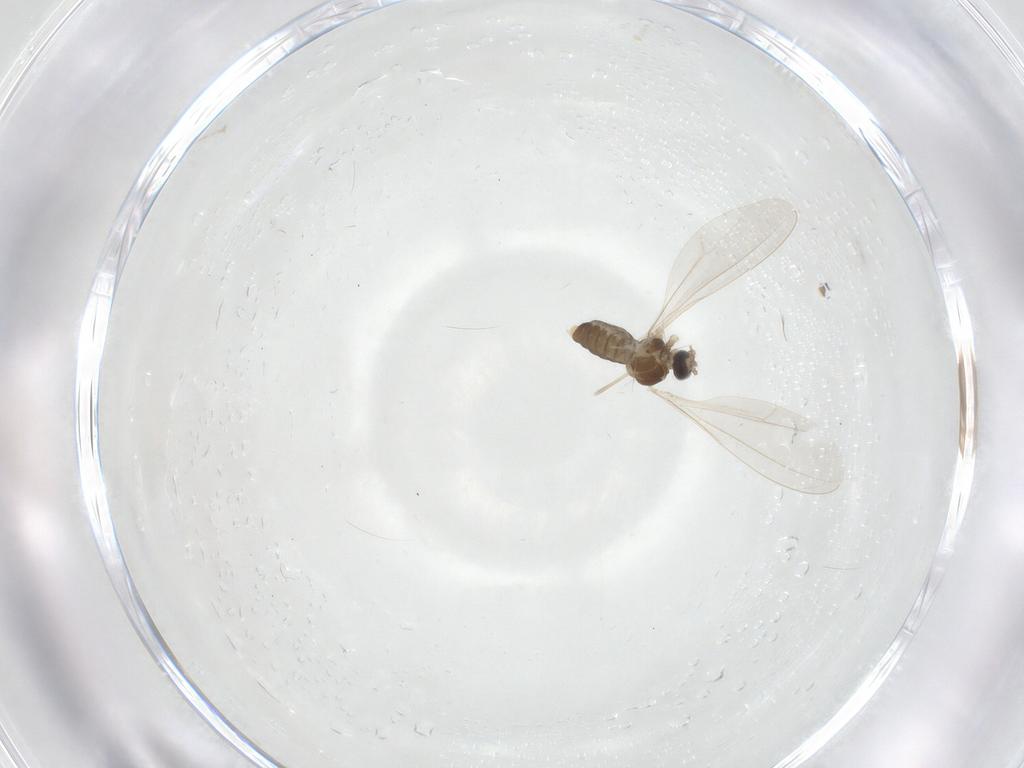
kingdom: Animalia
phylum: Arthropoda
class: Insecta
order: Diptera
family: Cecidomyiidae
